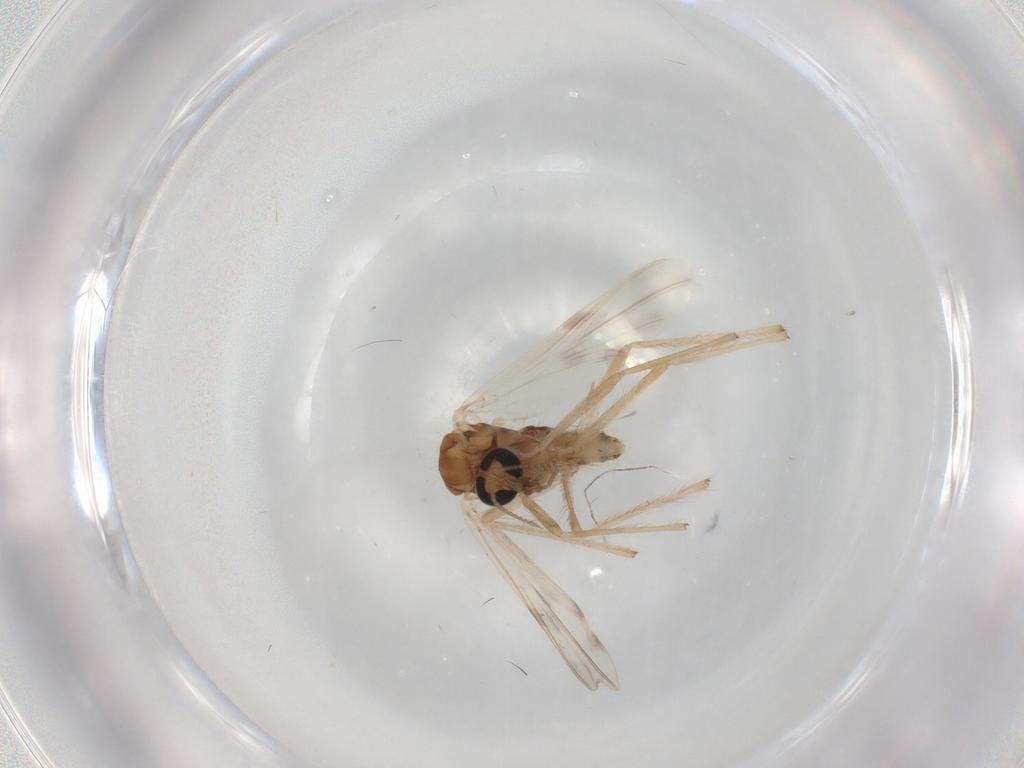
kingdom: Animalia
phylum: Arthropoda
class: Insecta
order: Diptera
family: Chironomidae
